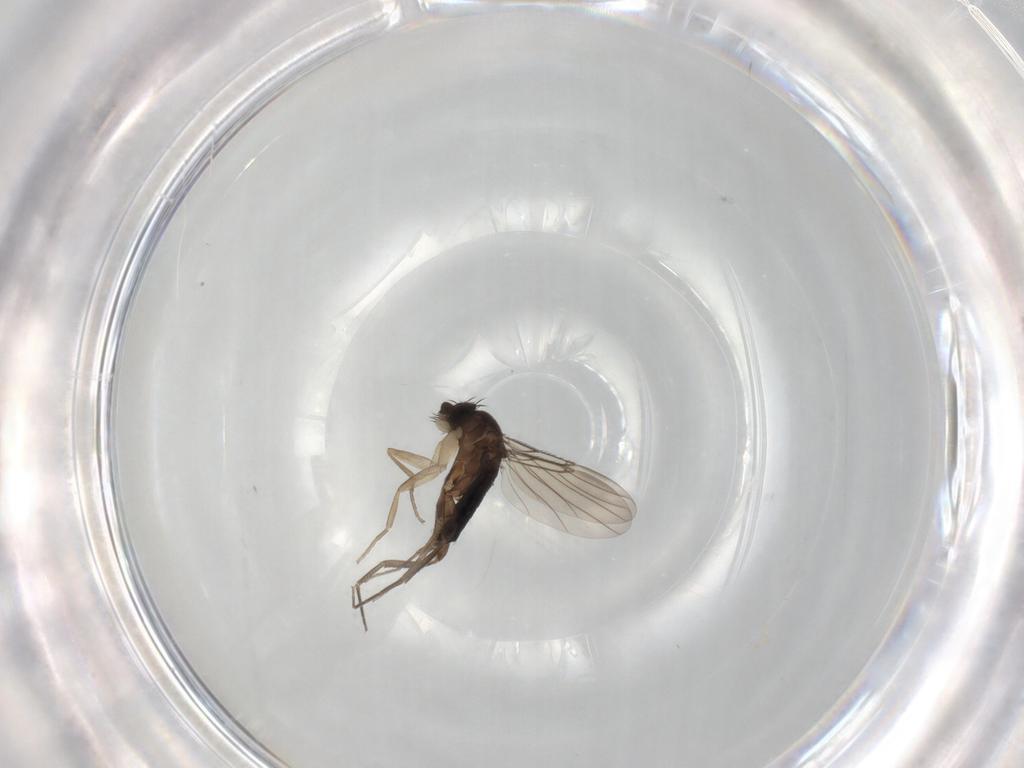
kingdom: Animalia
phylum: Arthropoda
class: Insecta
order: Diptera
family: Phoridae
